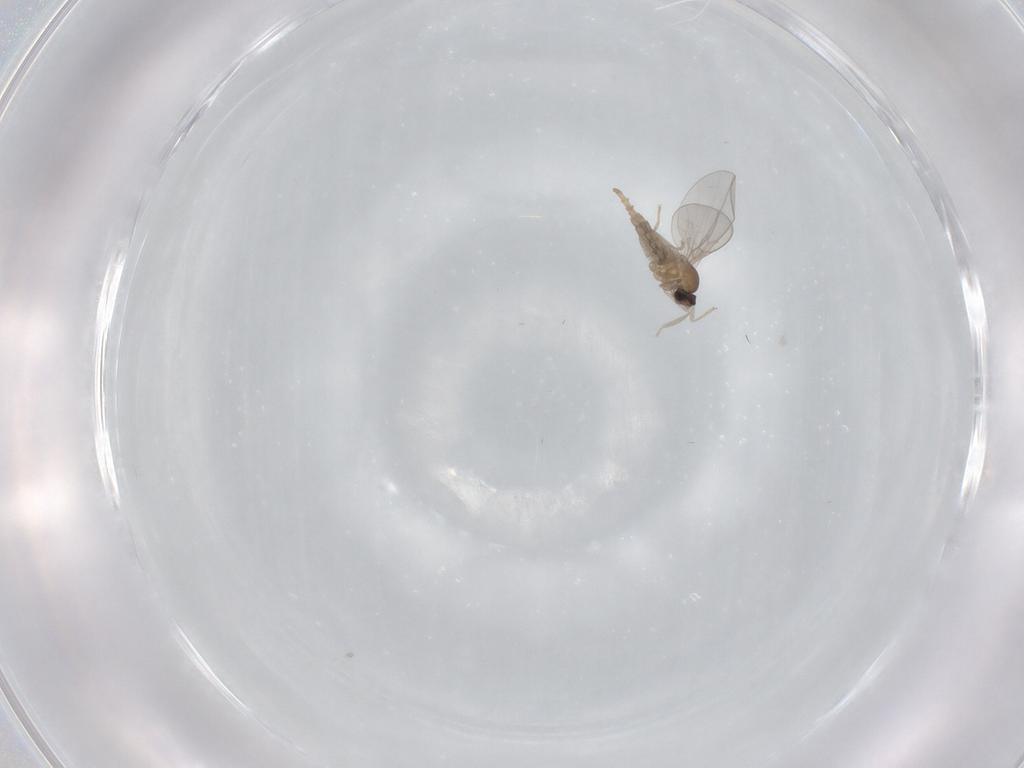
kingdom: Animalia
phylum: Arthropoda
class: Insecta
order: Diptera
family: Cecidomyiidae
